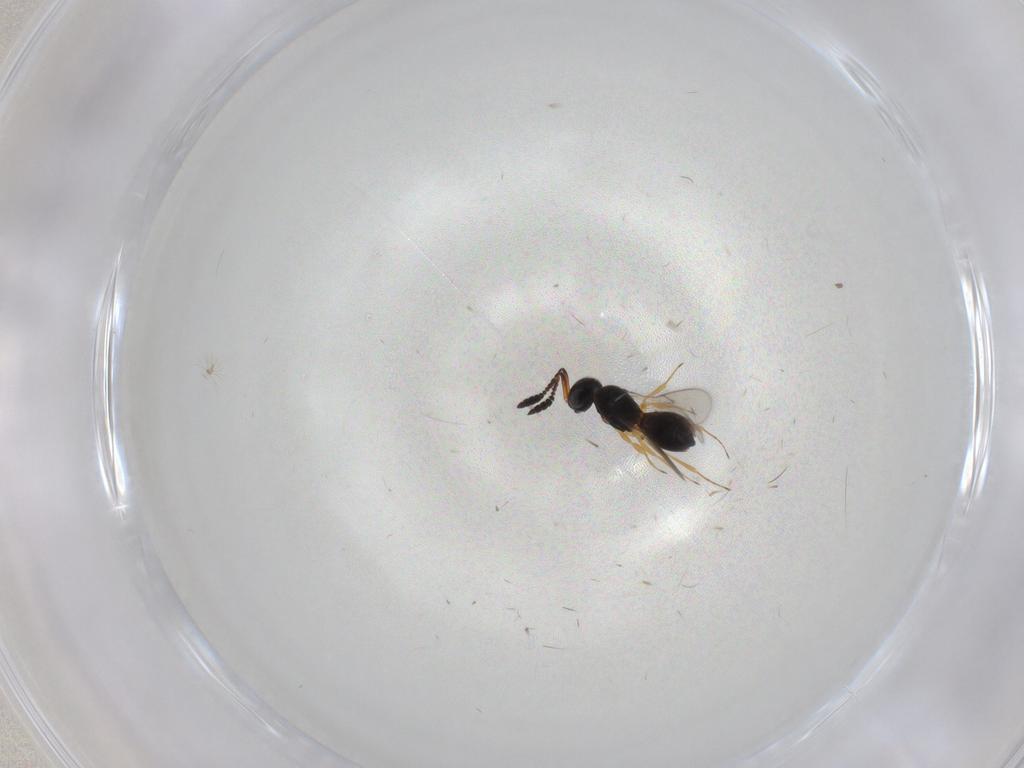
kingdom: Animalia
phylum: Arthropoda
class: Insecta
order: Hymenoptera
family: Scelionidae
